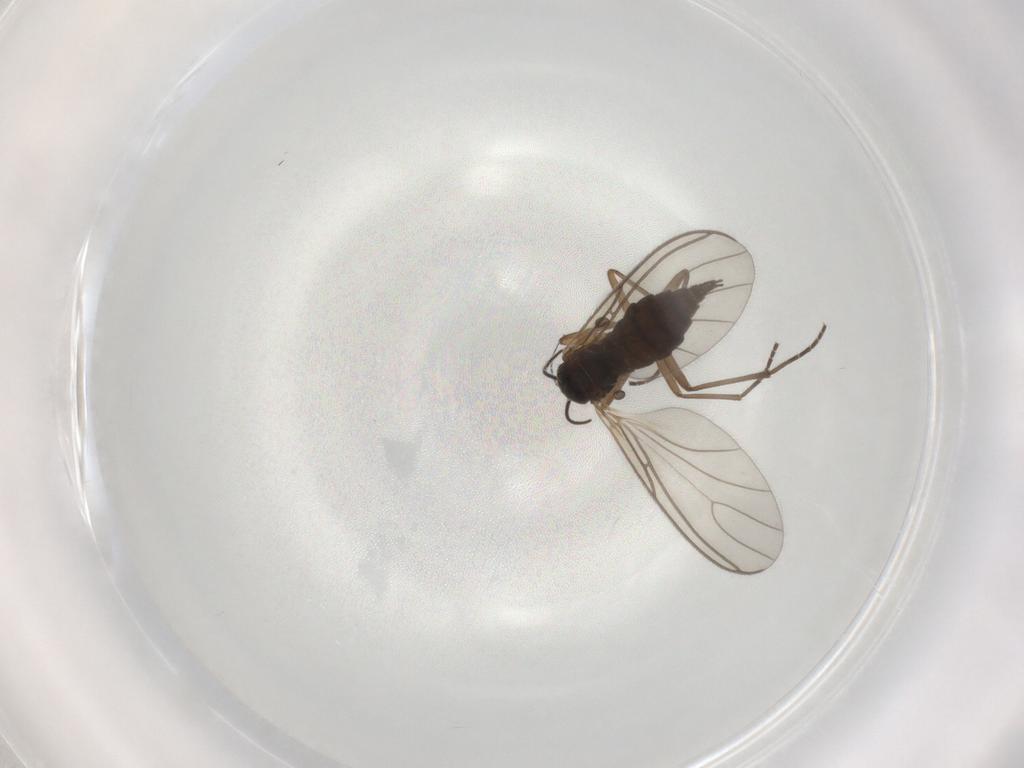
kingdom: Animalia
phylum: Arthropoda
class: Insecta
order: Diptera
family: Sciaridae
